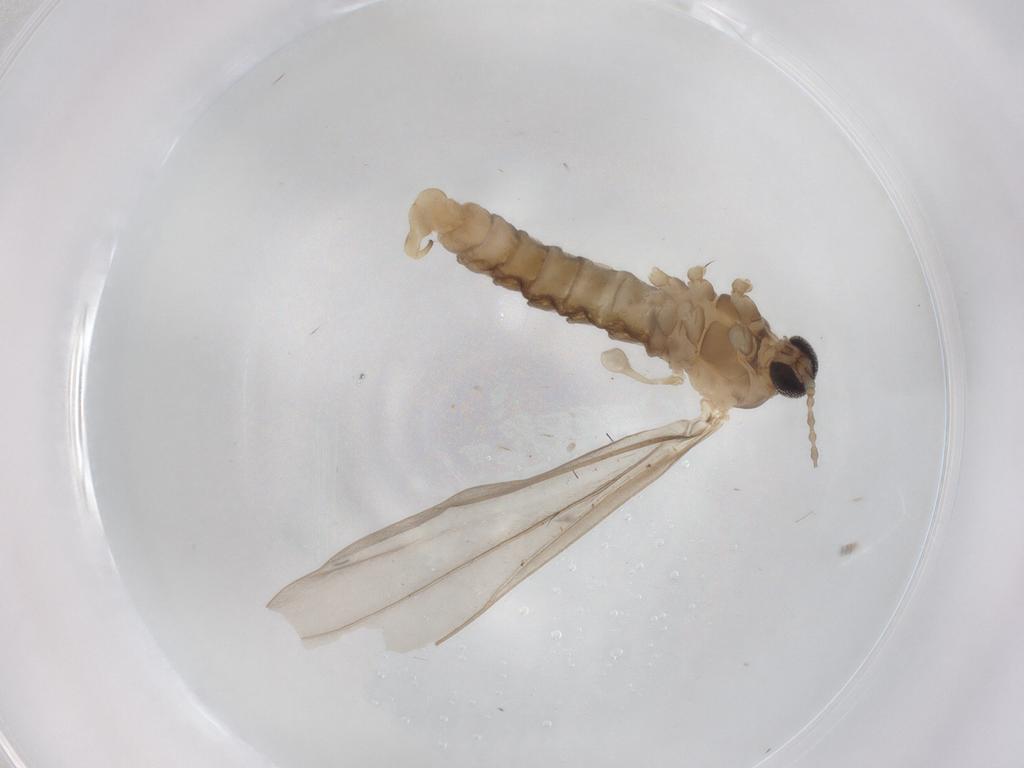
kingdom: Animalia
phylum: Arthropoda
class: Insecta
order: Diptera
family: Cecidomyiidae
